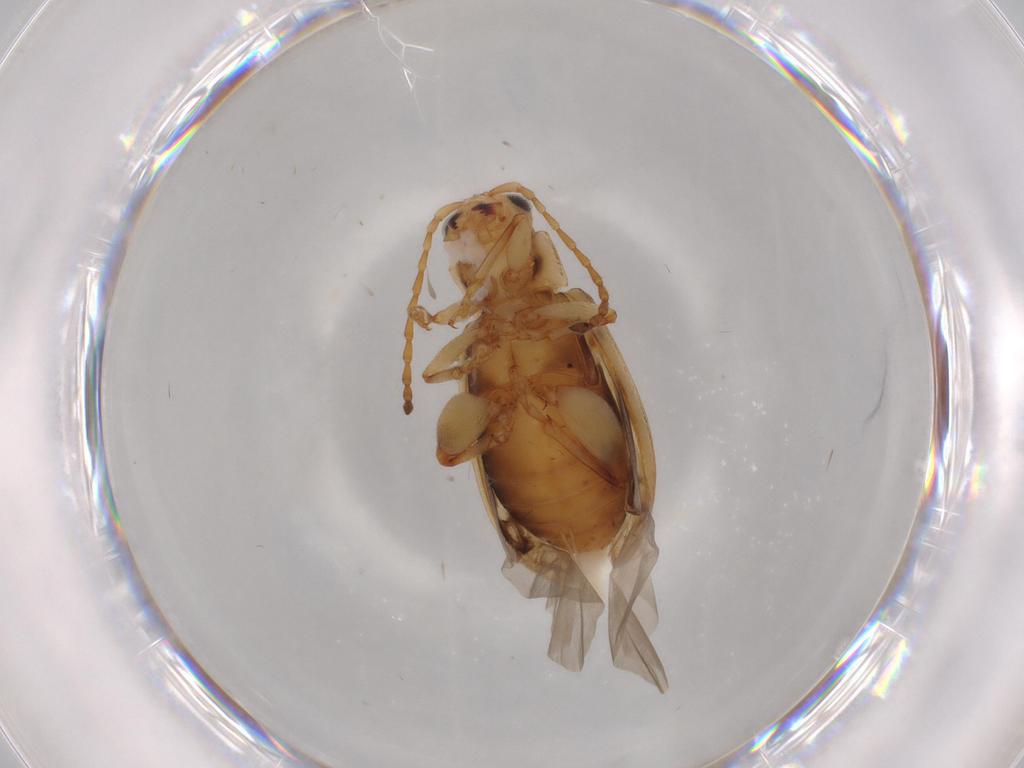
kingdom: Animalia
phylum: Arthropoda
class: Insecta
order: Coleoptera
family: Chrysomelidae
